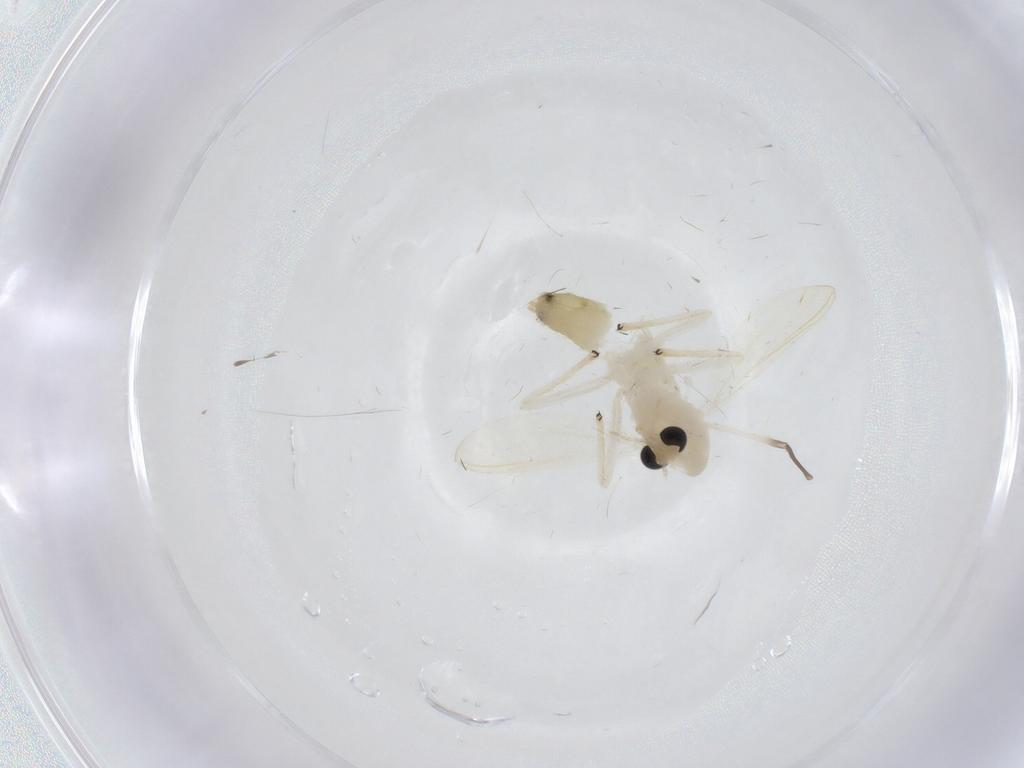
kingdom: Animalia
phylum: Arthropoda
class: Insecta
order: Diptera
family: Chironomidae
